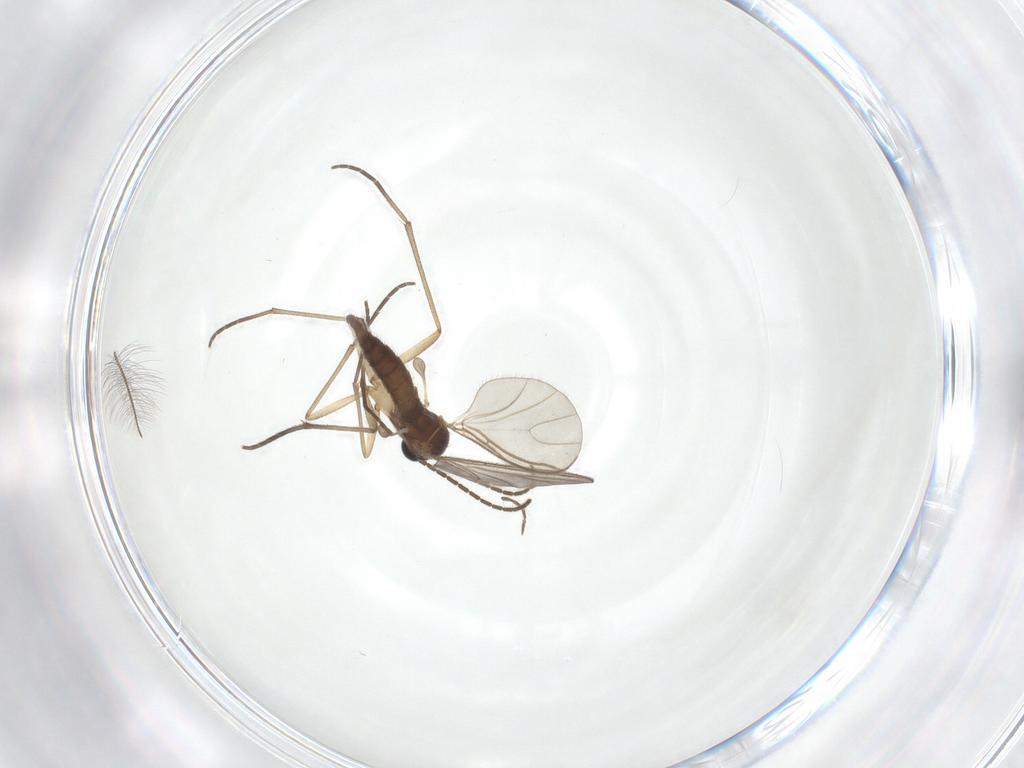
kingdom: Animalia
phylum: Arthropoda
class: Insecta
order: Diptera
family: Sciaridae
